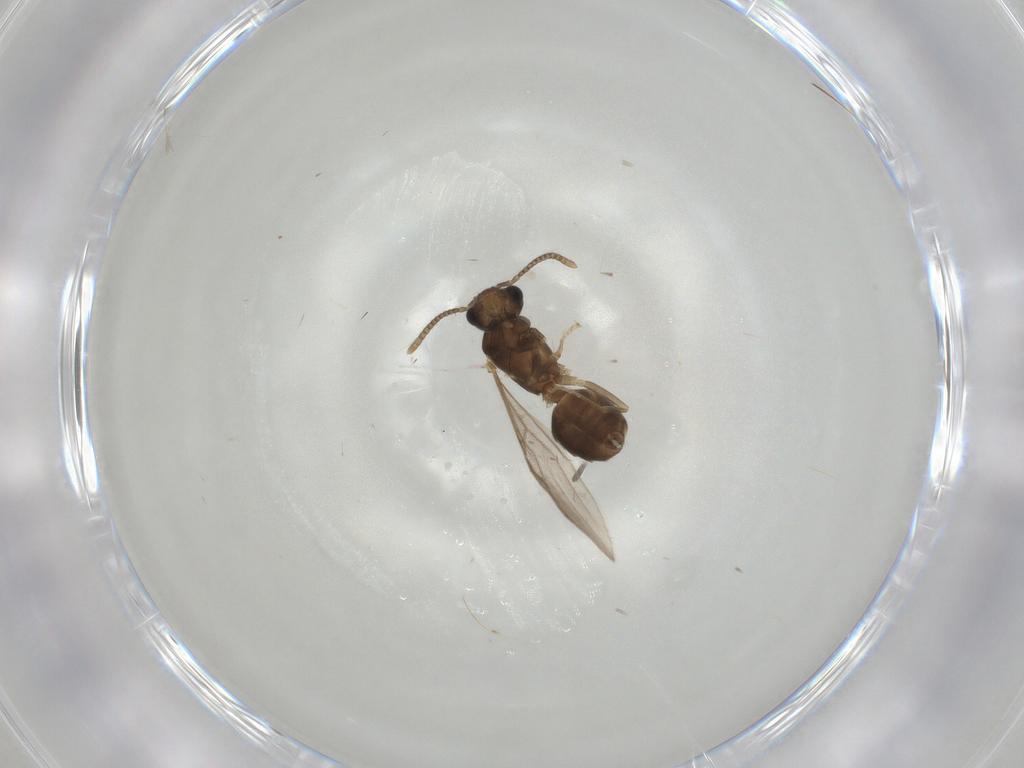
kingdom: Animalia
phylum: Arthropoda
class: Insecta
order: Hymenoptera
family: Formicidae
